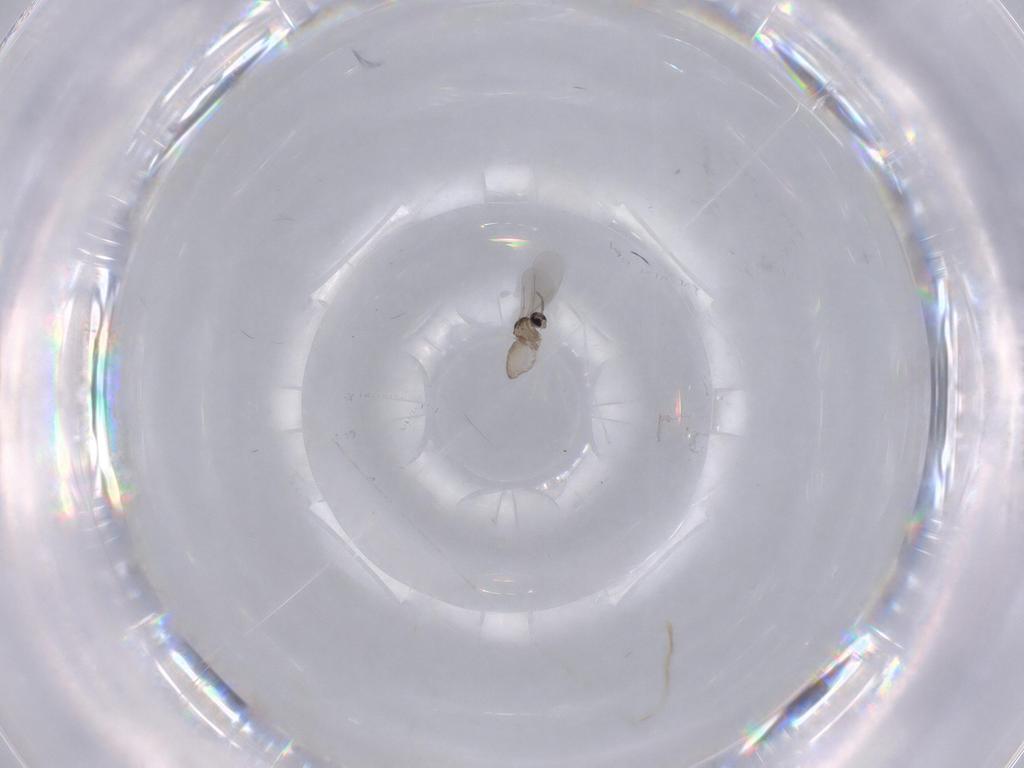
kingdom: Animalia
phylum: Arthropoda
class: Insecta
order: Diptera
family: Cecidomyiidae
